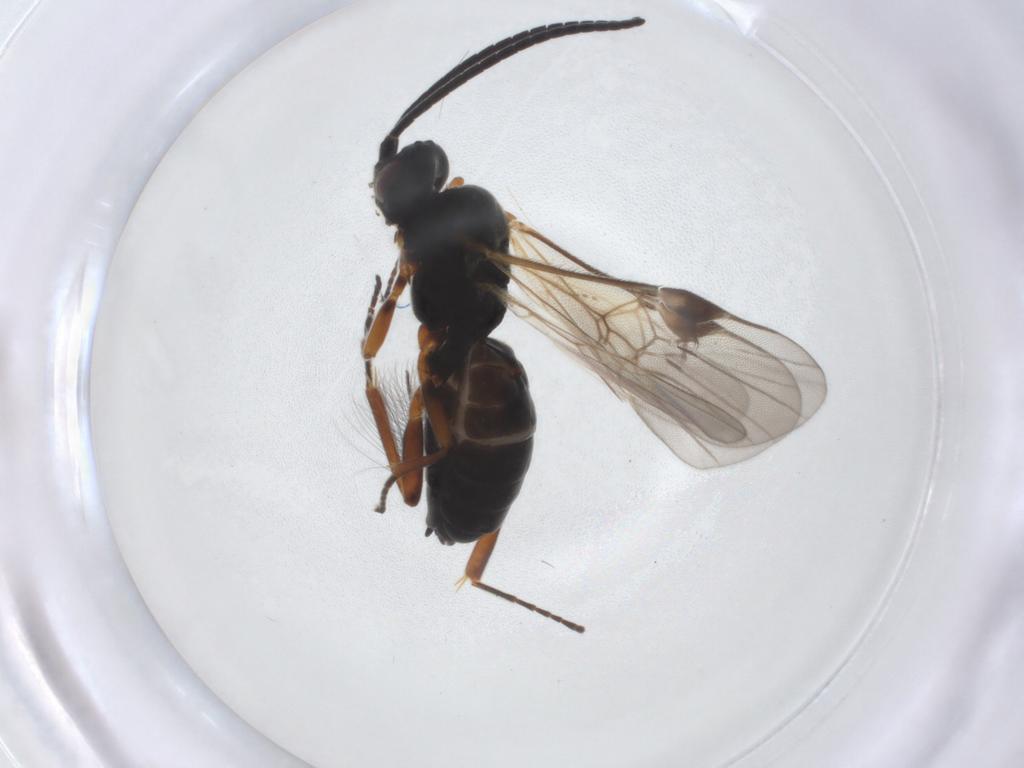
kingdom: Animalia
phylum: Arthropoda
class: Insecta
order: Hymenoptera
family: Braconidae
